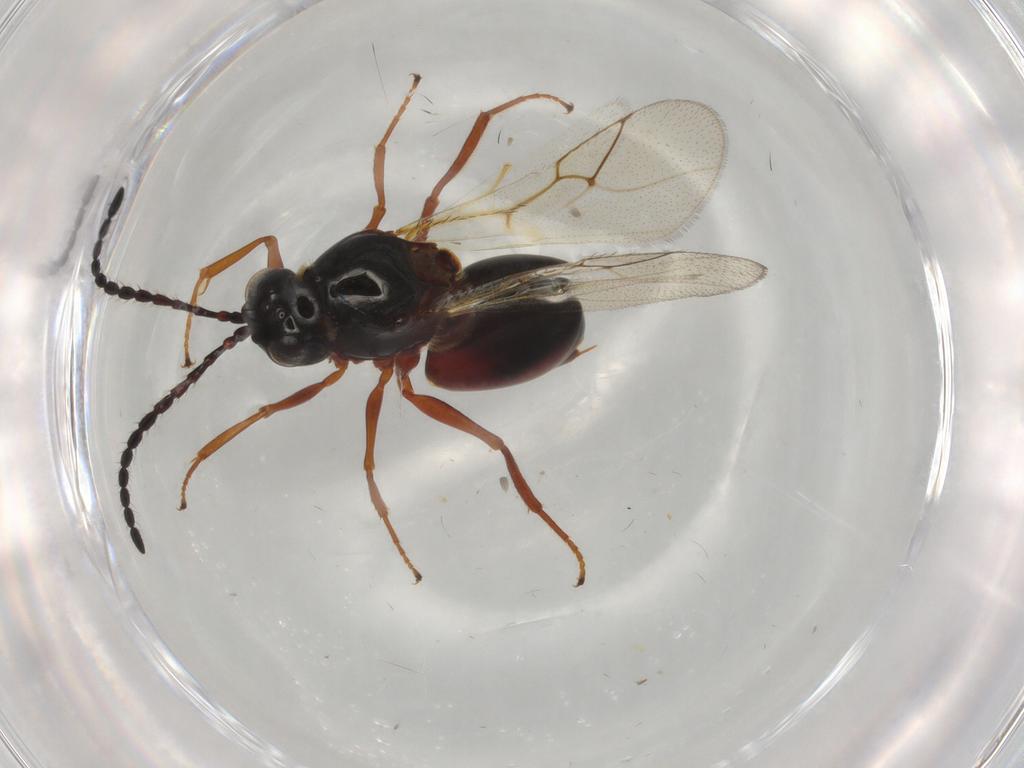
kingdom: Animalia
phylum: Arthropoda
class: Insecta
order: Hymenoptera
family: Figitidae
